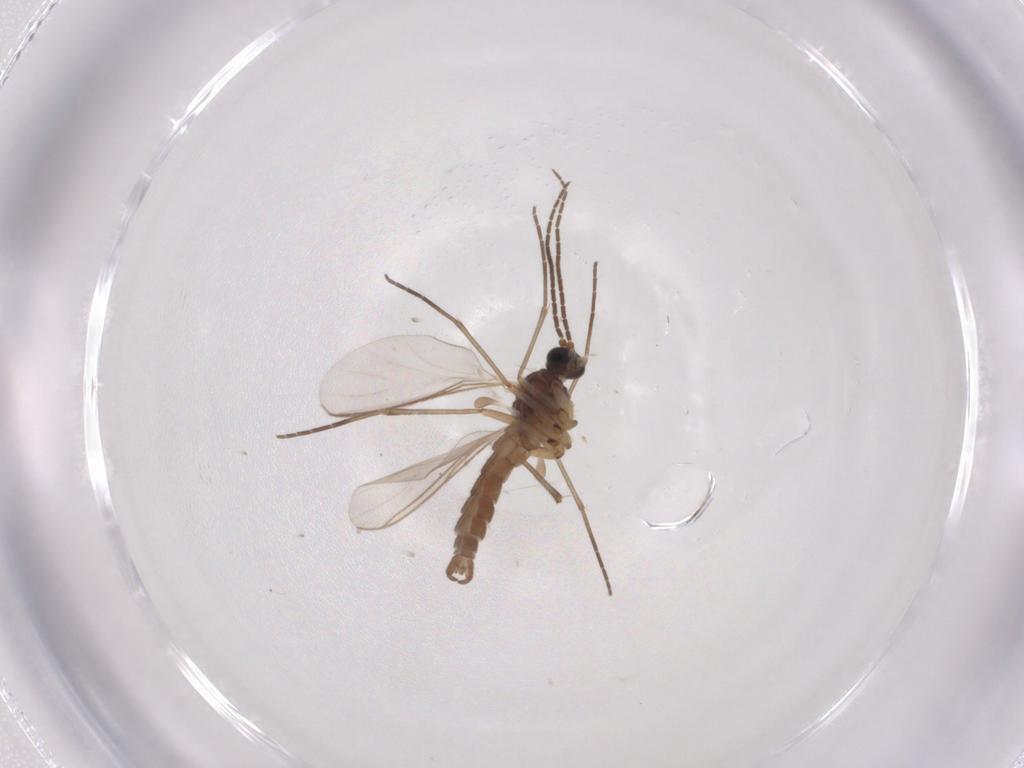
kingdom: Animalia
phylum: Arthropoda
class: Insecta
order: Diptera
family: Sciaridae
